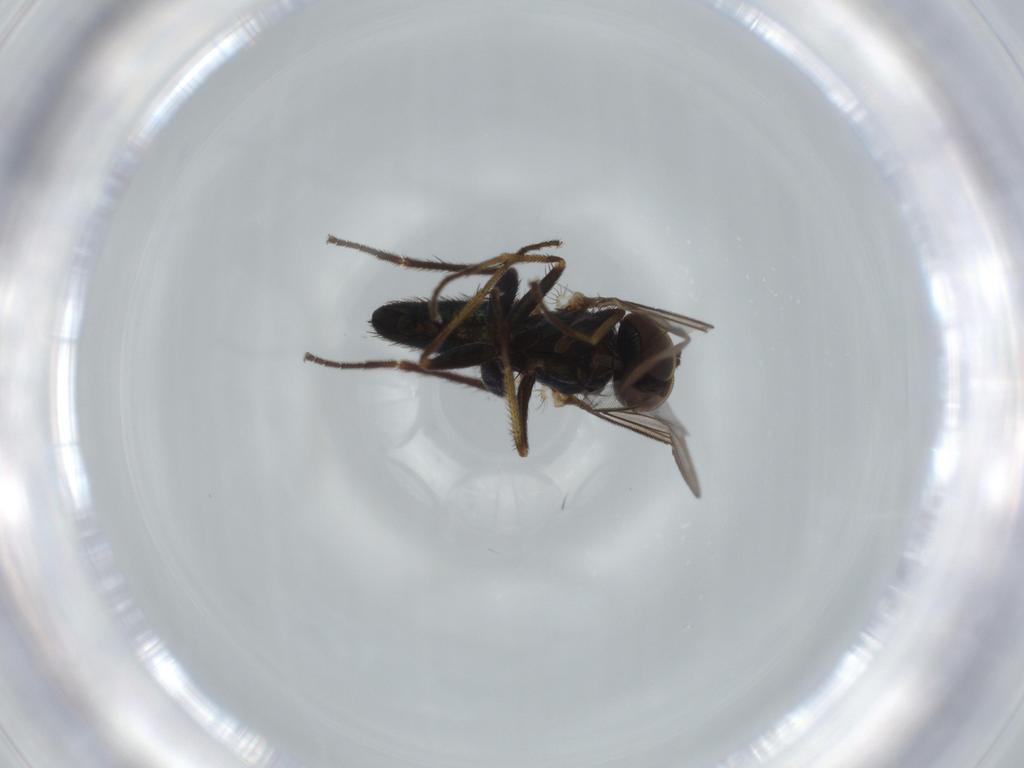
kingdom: Animalia
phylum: Arthropoda
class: Insecta
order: Diptera
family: Dolichopodidae
